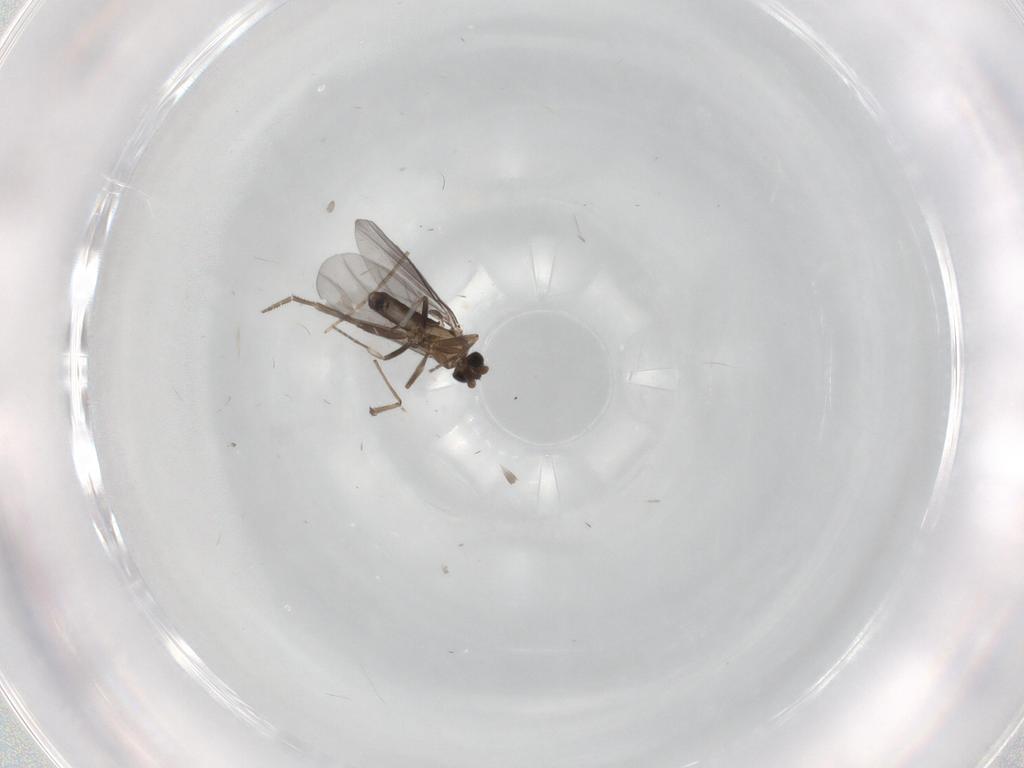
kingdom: Animalia
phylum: Arthropoda
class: Insecta
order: Diptera
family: Cecidomyiidae
